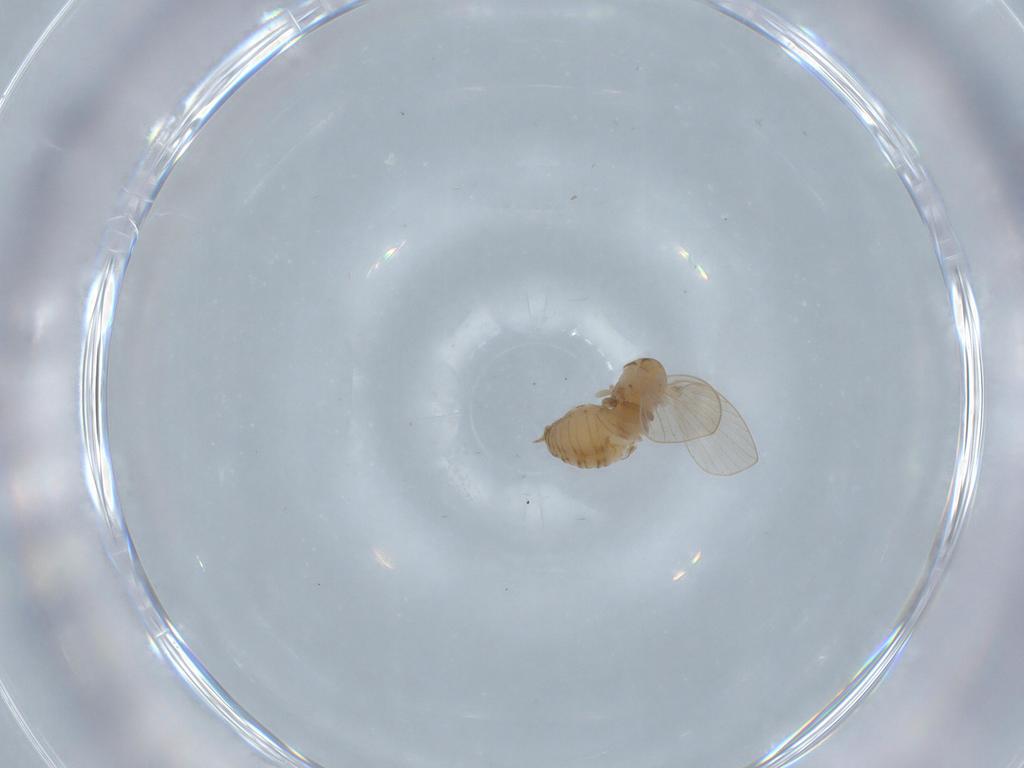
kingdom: Animalia
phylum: Arthropoda
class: Insecta
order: Diptera
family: Psychodidae
